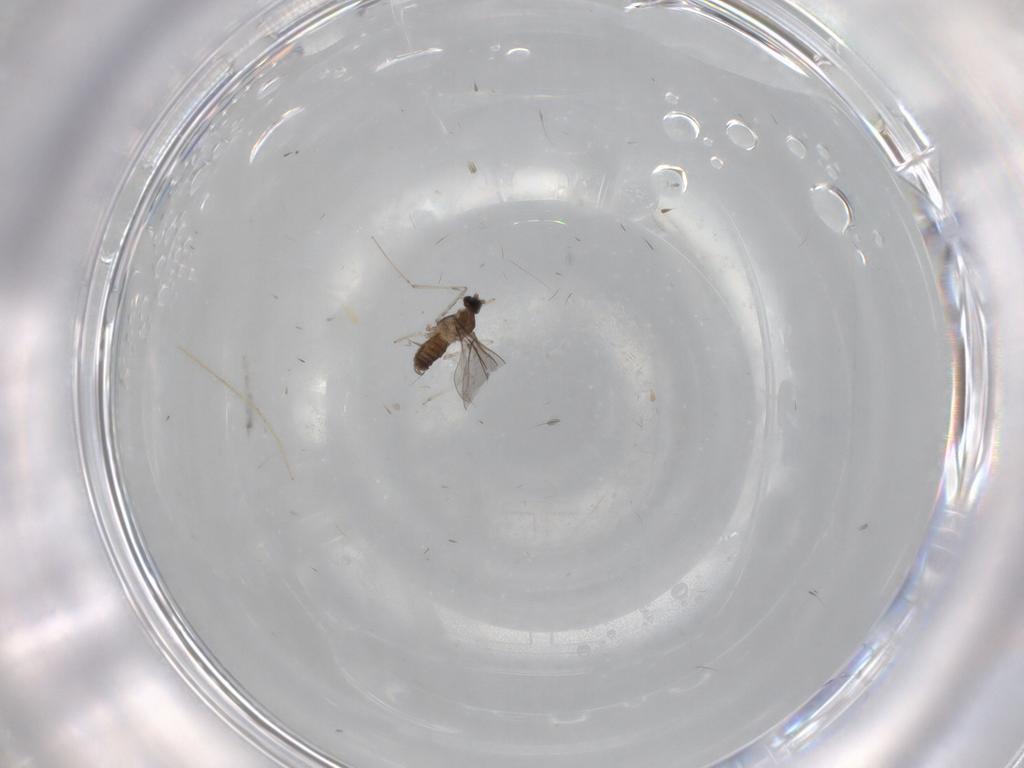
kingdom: Animalia
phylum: Arthropoda
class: Insecta
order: Diptera
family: Cecidomyiidae
